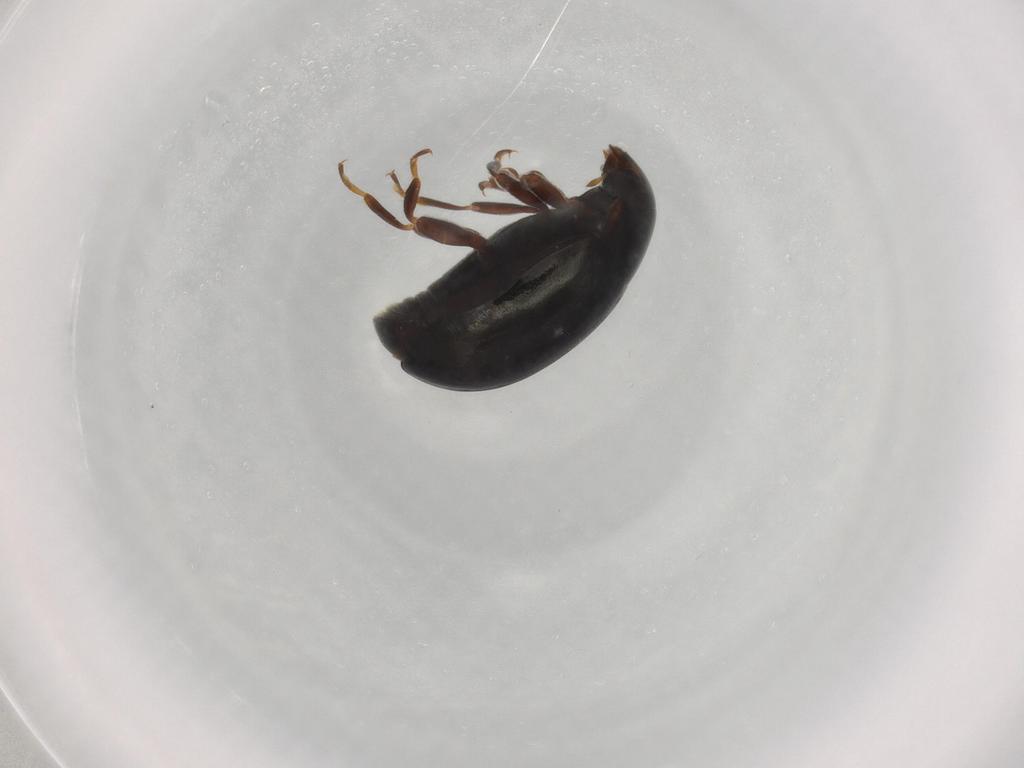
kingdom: Animalia
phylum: Arthropoda
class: Insecta
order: Coleoptera
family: Coccinellidae
